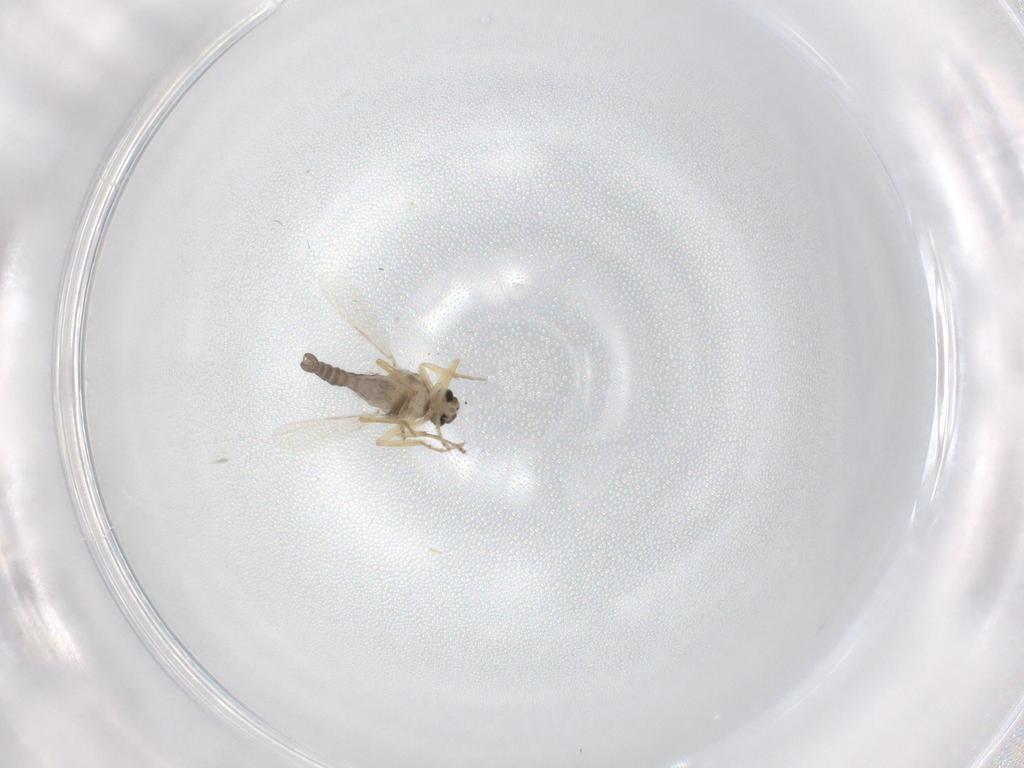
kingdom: Animalia
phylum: Arthropoda
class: Insecta
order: Diptera
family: Ceratopogonidae
